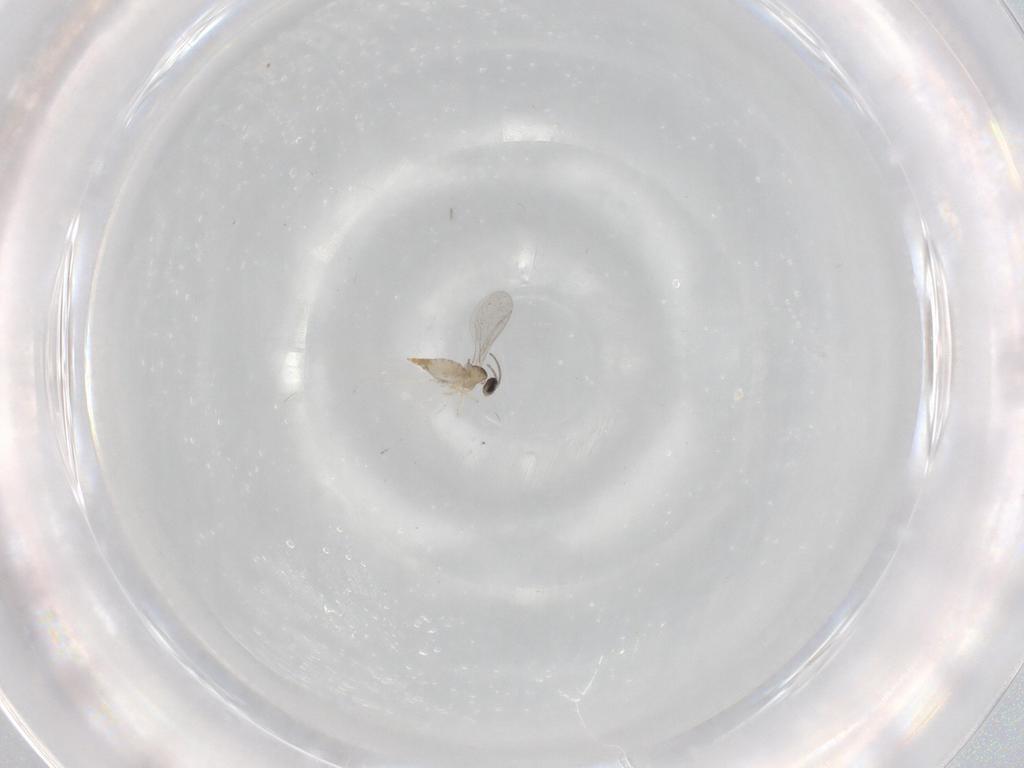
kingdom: Animalia
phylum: Arthropoda
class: Insecta
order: Diptera
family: Cecidomyiidae
